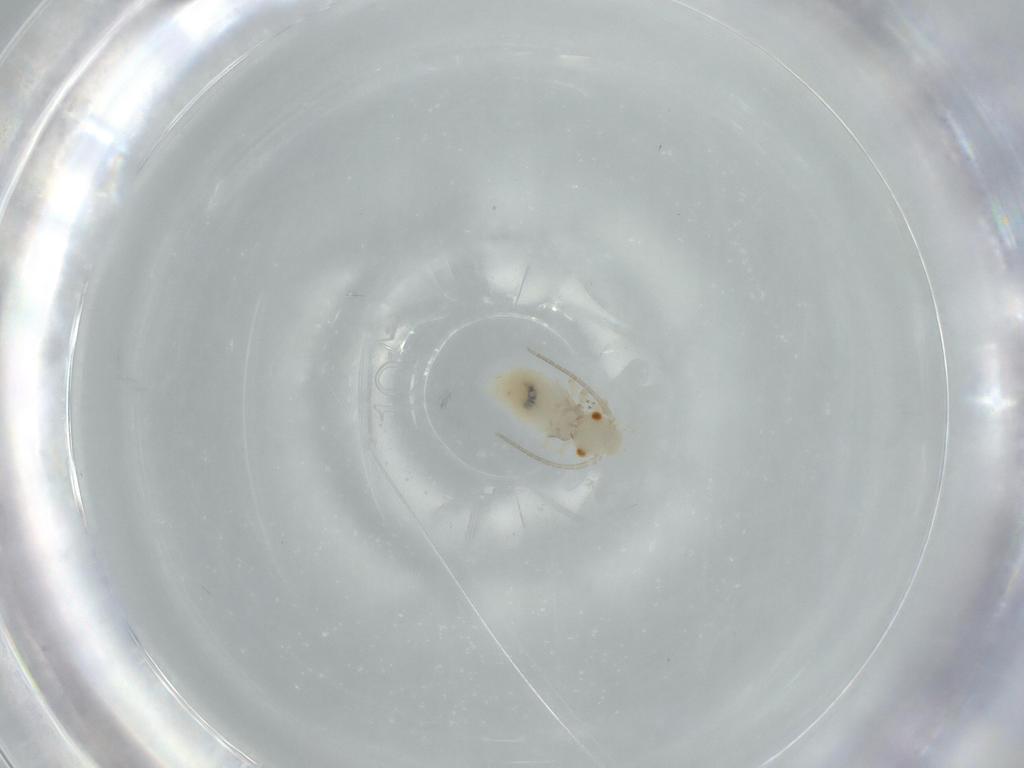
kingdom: Animalia
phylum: Arthropoda
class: Insecta
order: Psocodea
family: Caeciliusidae
